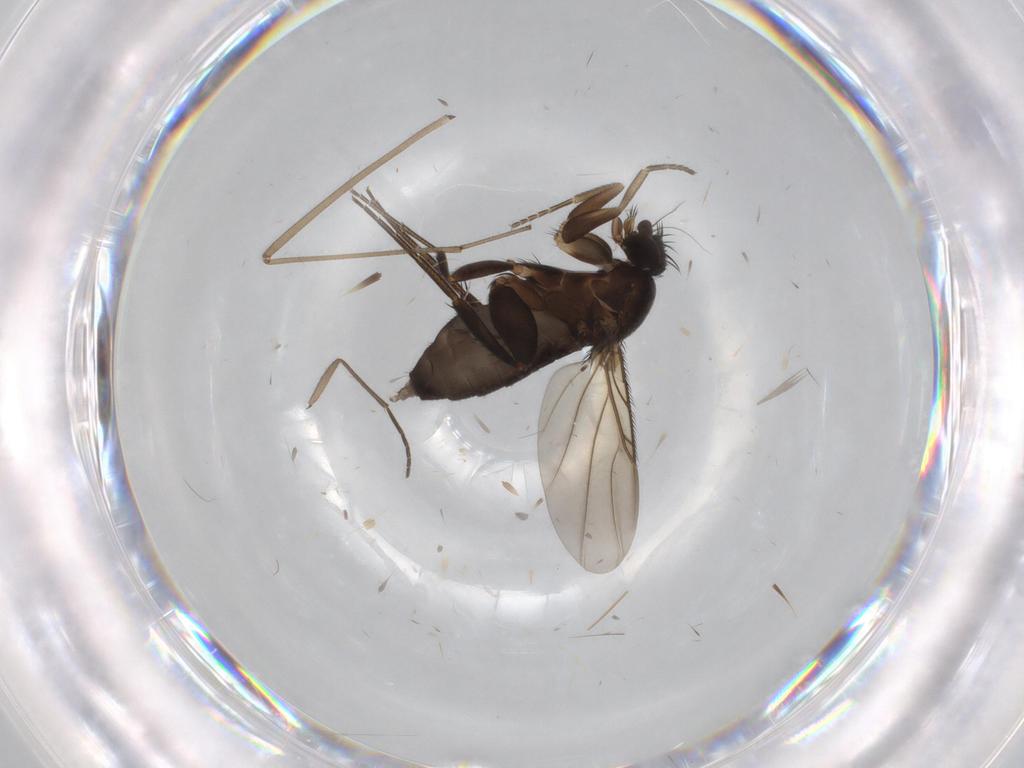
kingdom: Animalia
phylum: Arthropoda
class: Insecta
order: Diptera
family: Limoniidae
